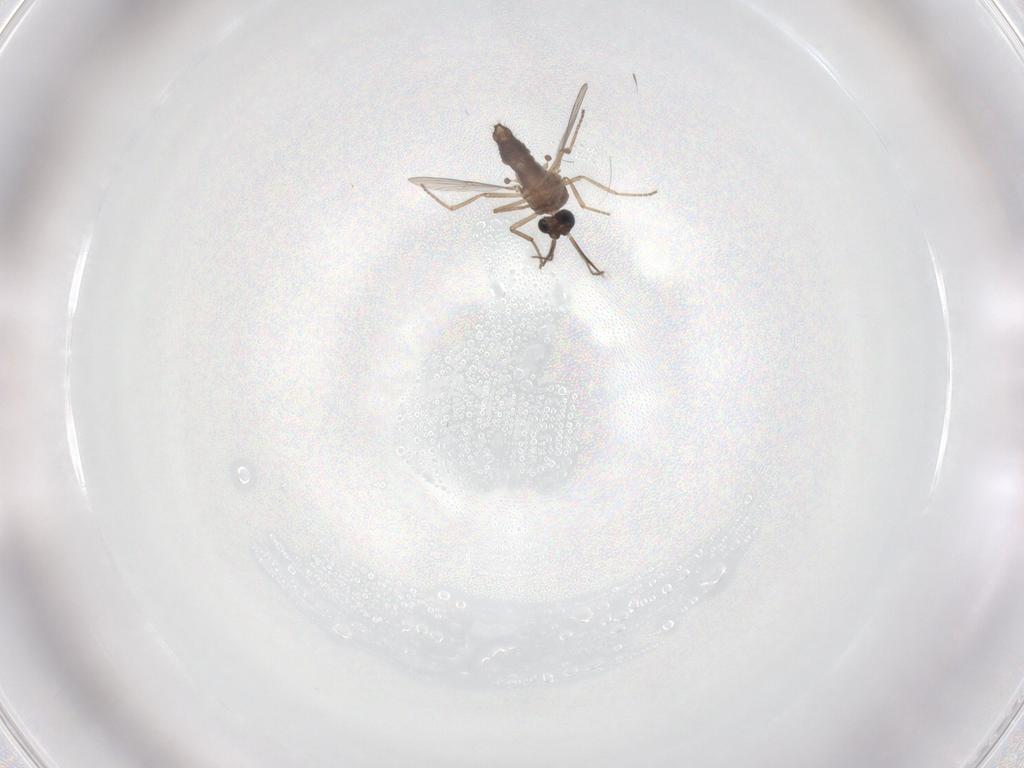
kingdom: Animalia
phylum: Arthropoda
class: Insecta
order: Diptera
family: Ceratopogonidae
